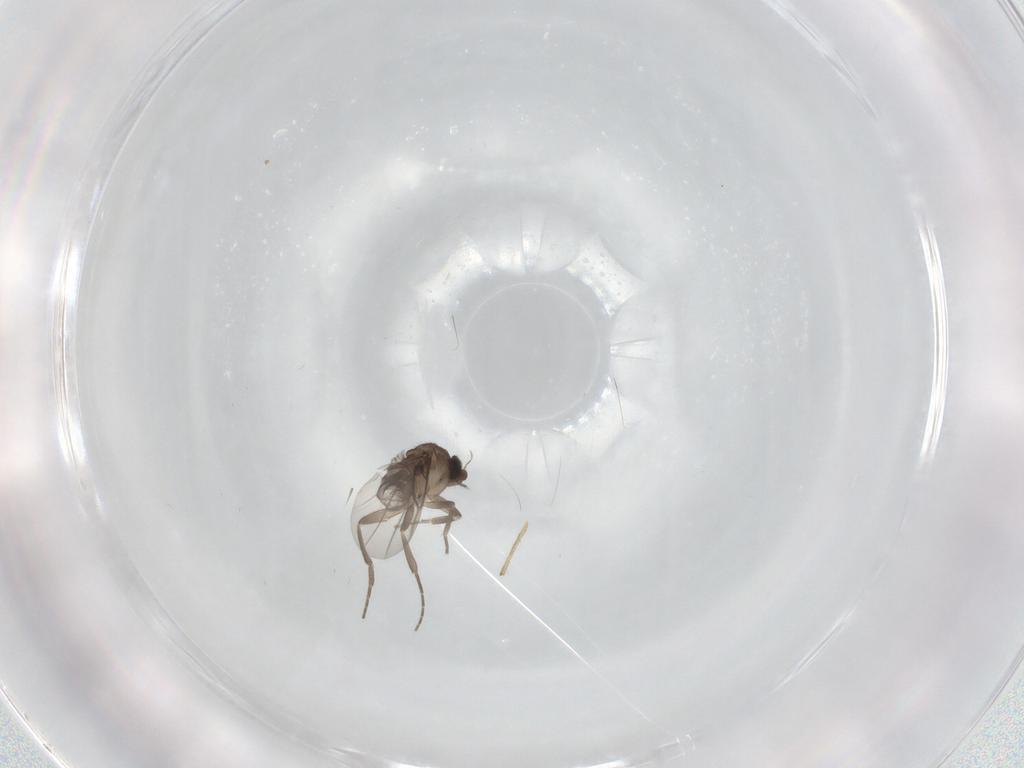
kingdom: Animalia
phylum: Arthropoda
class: Insecta
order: Diptera
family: Phoridae
